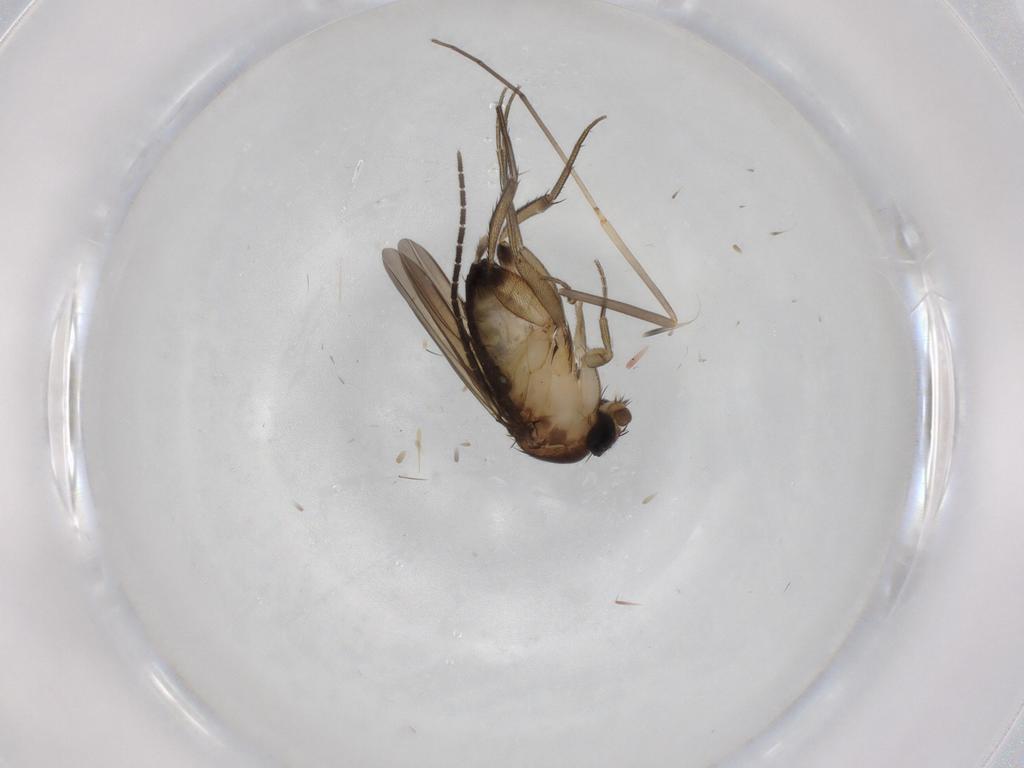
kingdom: Animalia
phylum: Arthropoda
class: Insecta
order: Diptera
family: Sciaridae
